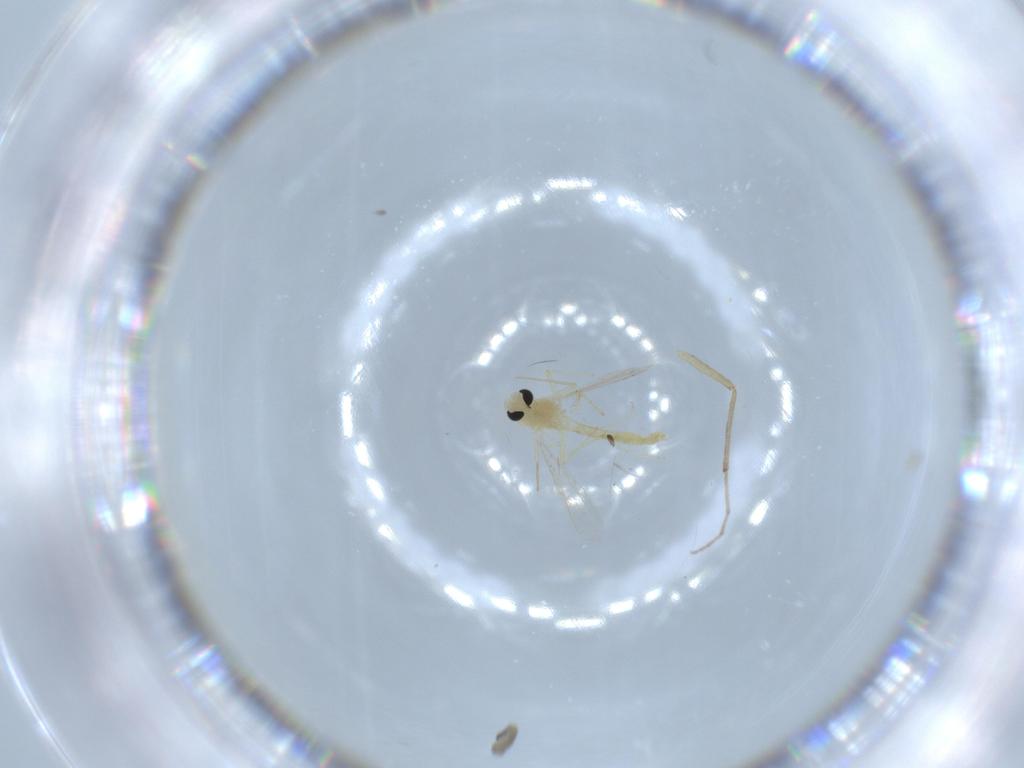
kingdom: Animalia
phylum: Arthropoda
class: Insecta
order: Diptera
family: Chironomidae
